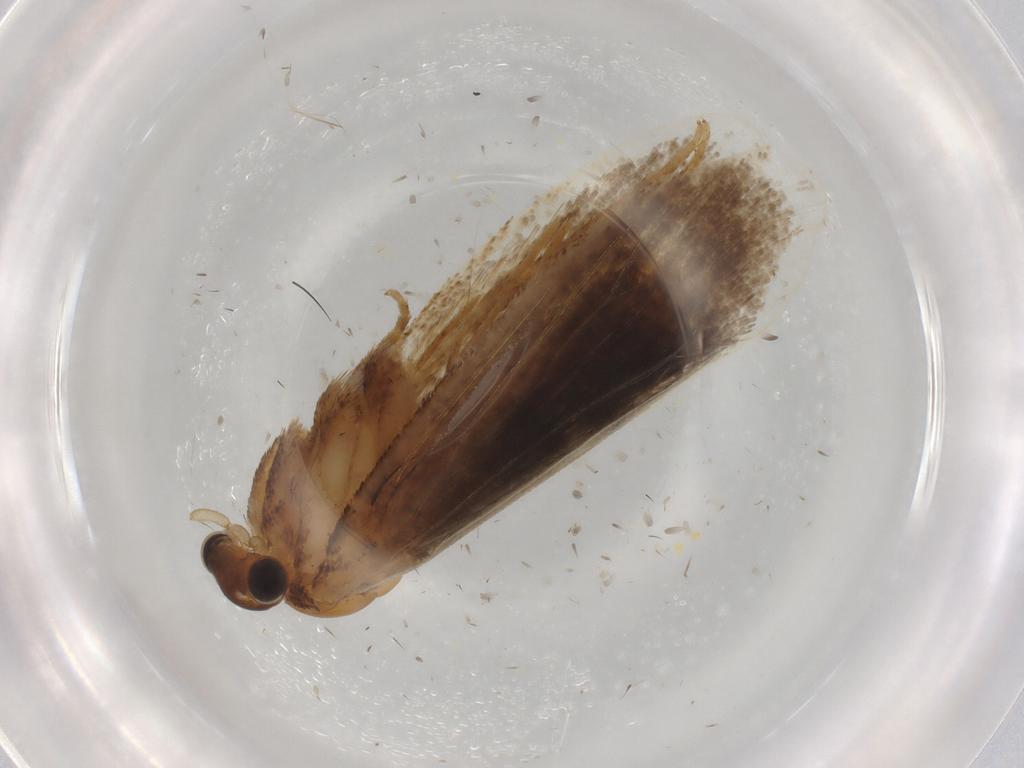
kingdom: Animalia
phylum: Arthropoda
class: Insecta
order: Lepidoptera
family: Nepticulidae
